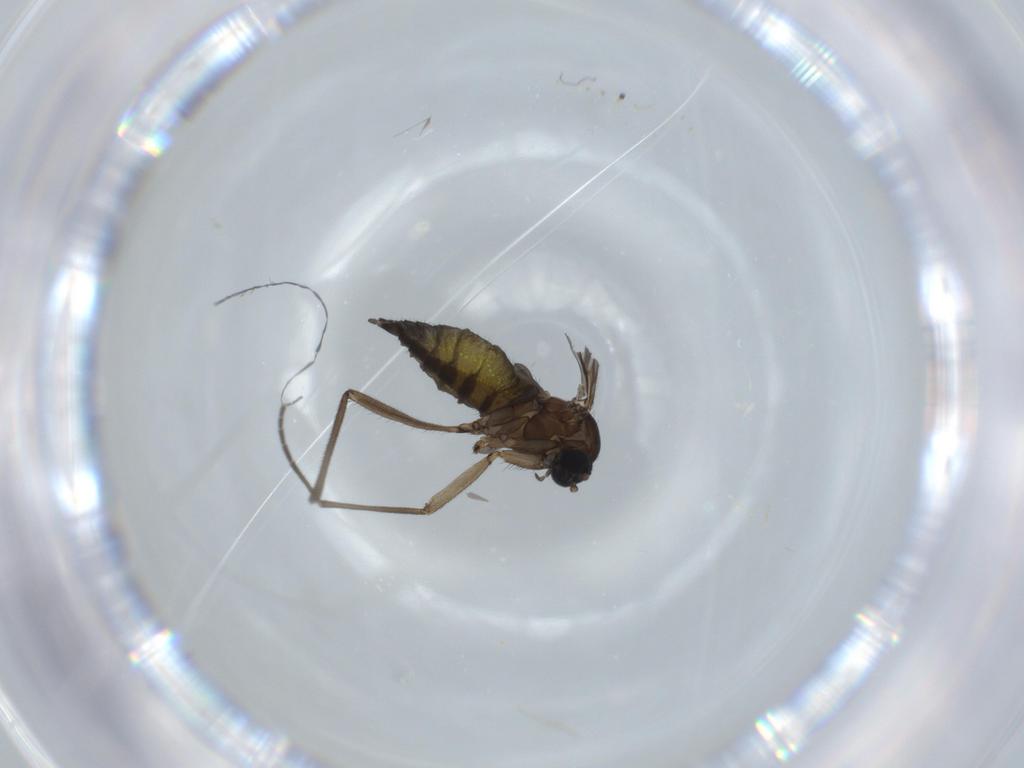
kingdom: Animalia
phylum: Arthropoda
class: Insecta
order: Diptera
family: Sciaridae
